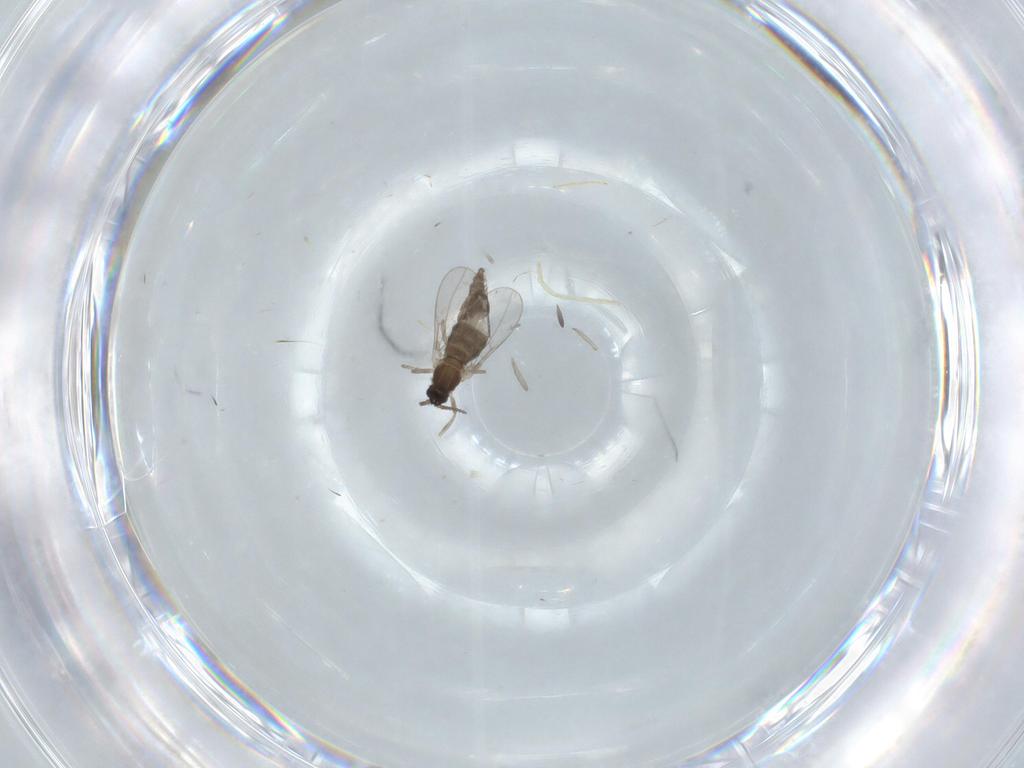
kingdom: Animalia
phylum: Arthropoda
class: Insecta
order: Diptera
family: Cecidomyiidae
